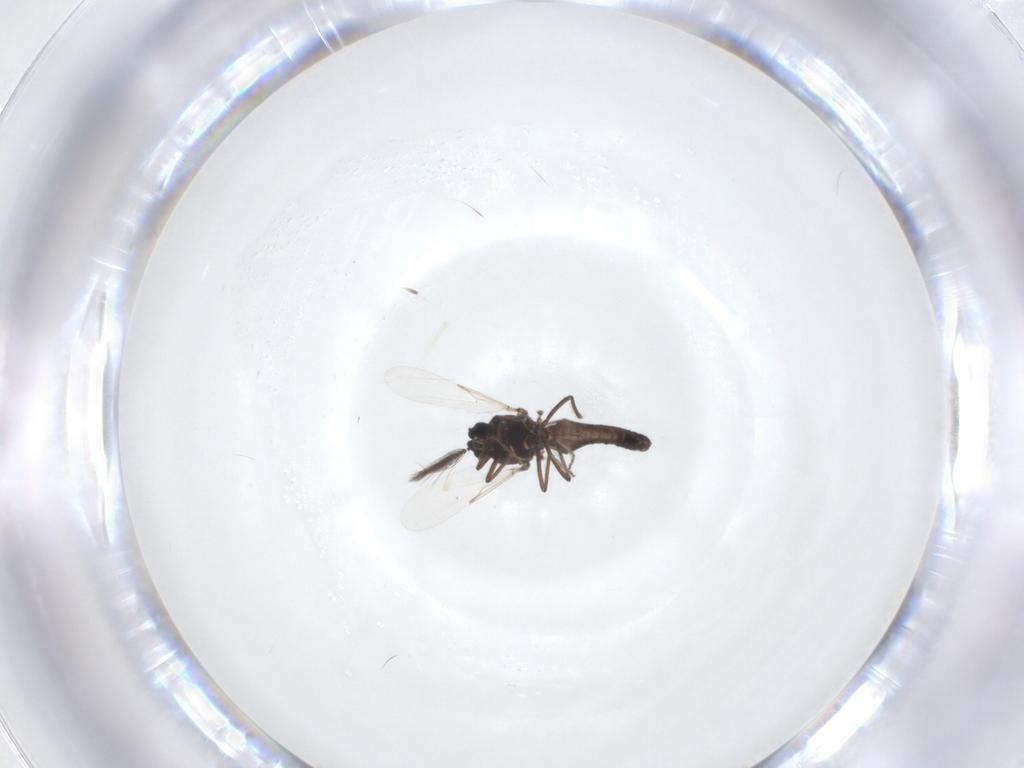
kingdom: Animalia
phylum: Arthropoda
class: Insecta
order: Diptera
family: Ceratopogonidae
